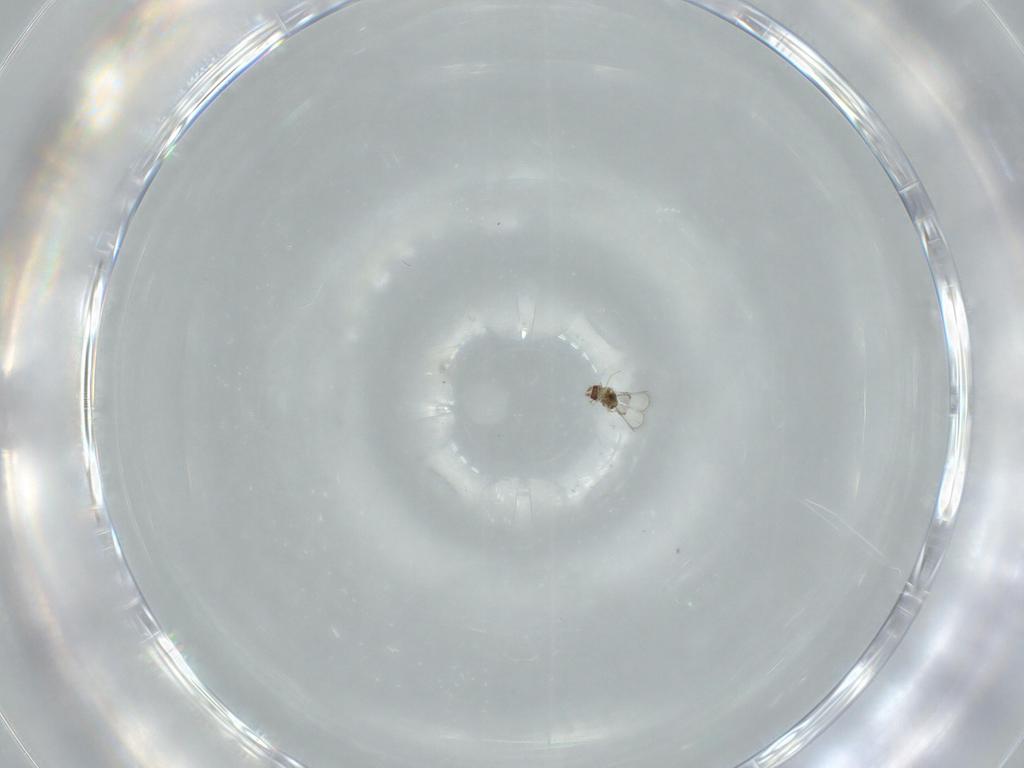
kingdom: Animalia
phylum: Arthropoda
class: Insecta
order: Hymenoptera
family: Trichogrammatidae
